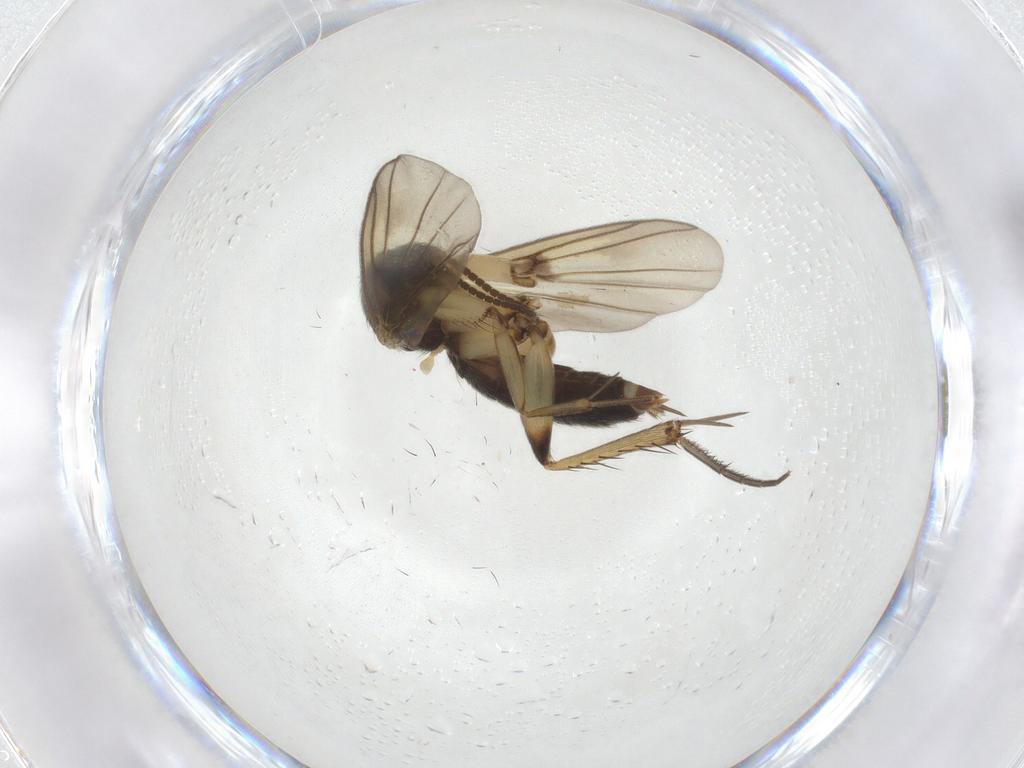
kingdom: Animalia
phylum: Arthropoda
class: Insecta
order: Diptera
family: Mycetophilidae
